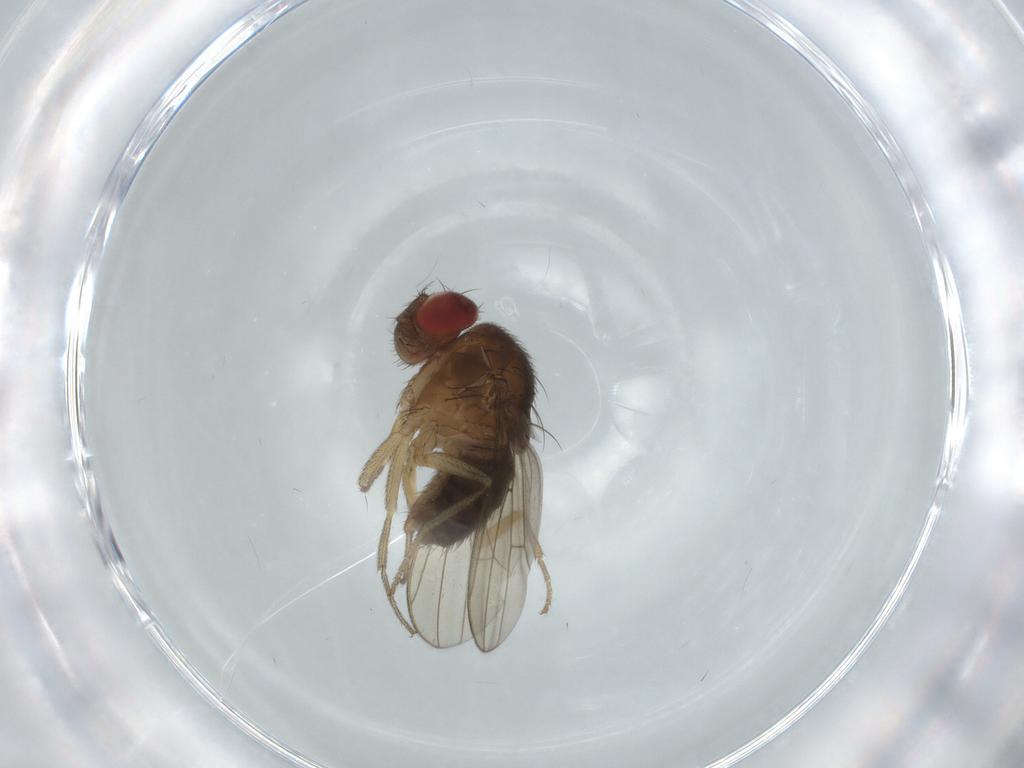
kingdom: Animalia
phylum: Arthropoda
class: Insecta
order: Diptera
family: Drosophilidae
